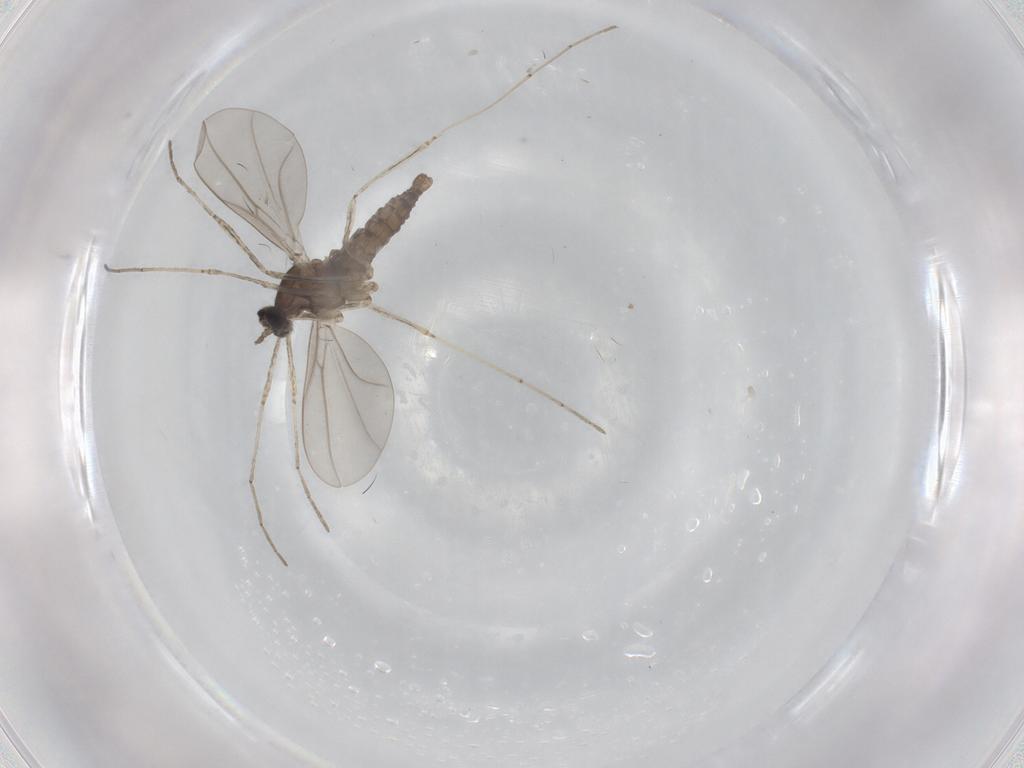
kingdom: Animalia
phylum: Arthropoda
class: Insecta
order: Diptera
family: Cecidomyiidae
